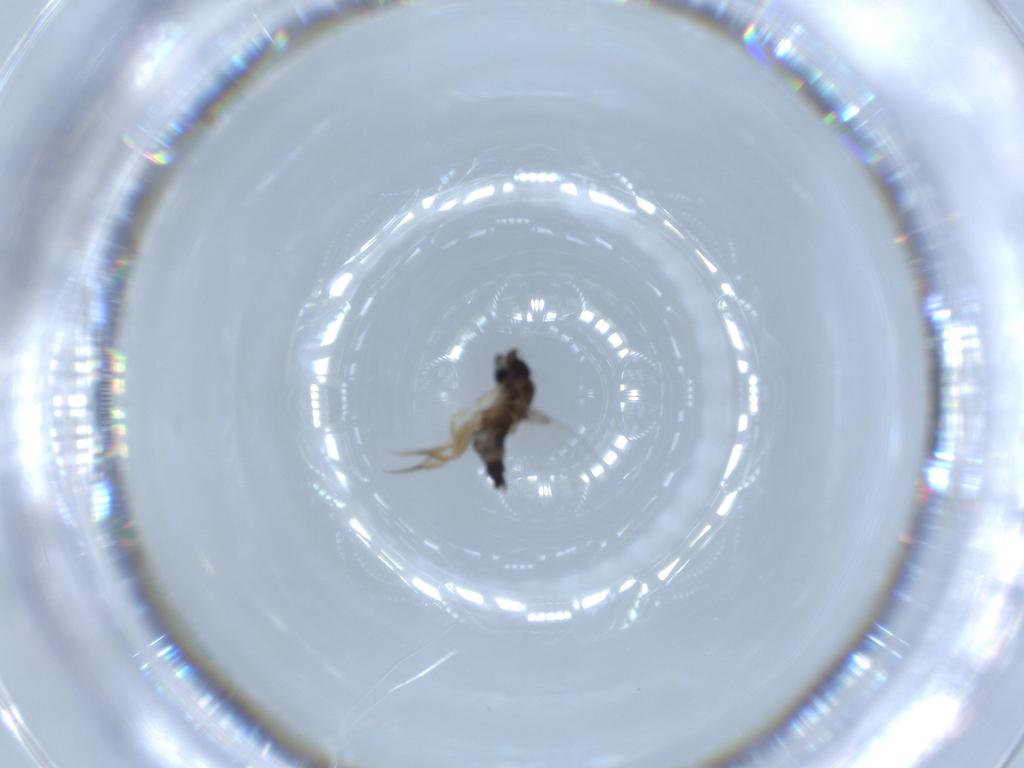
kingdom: Animalia
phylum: Arthropoda
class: Insecta
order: Diptera
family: Phoridae
